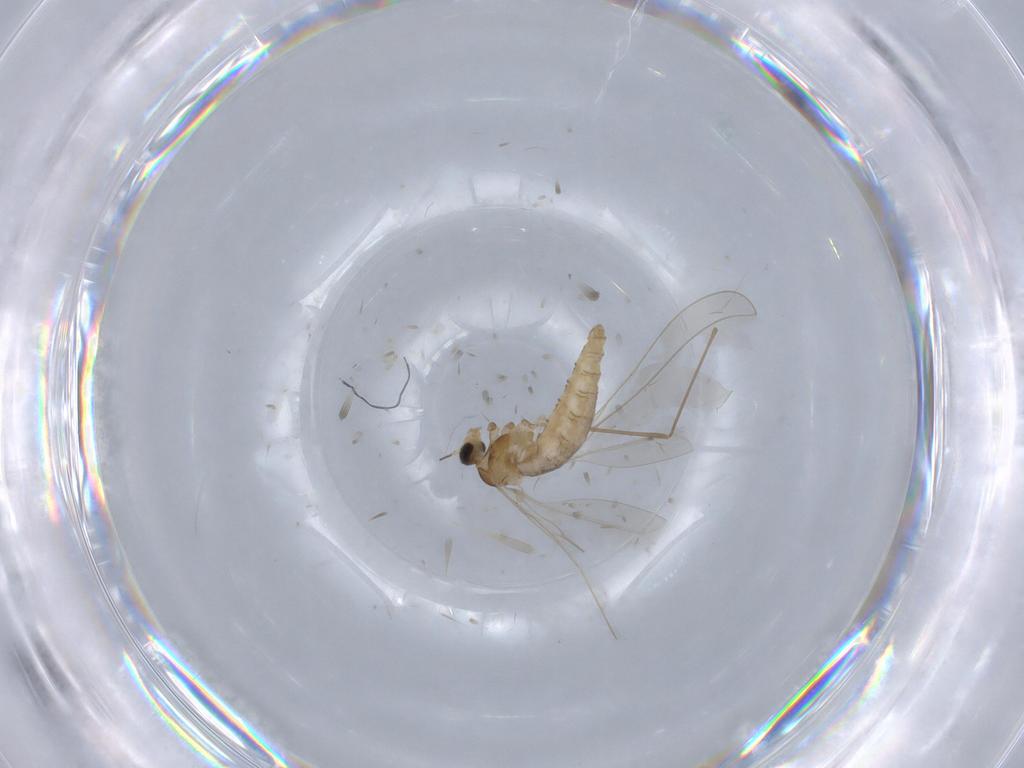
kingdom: Animalia
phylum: Arthropoda
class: Insecta
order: Diptera
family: Cecidomyiidae
